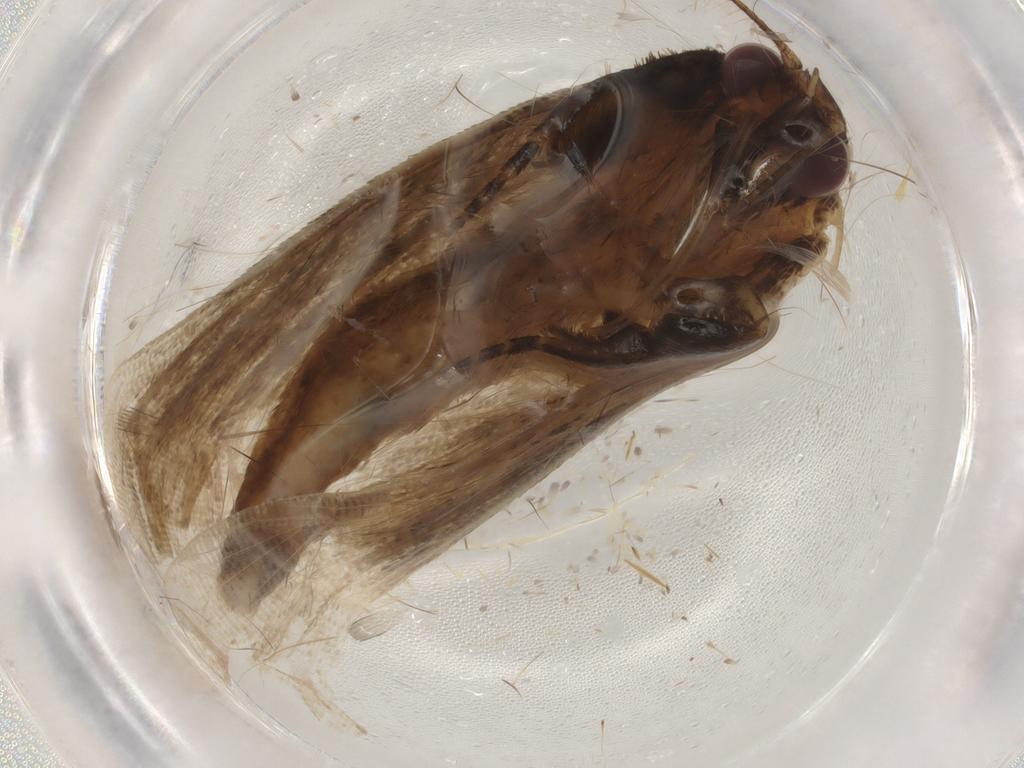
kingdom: Animalia
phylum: Arthropoda
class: Insecta
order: Lepidoptera
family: Erebidae
